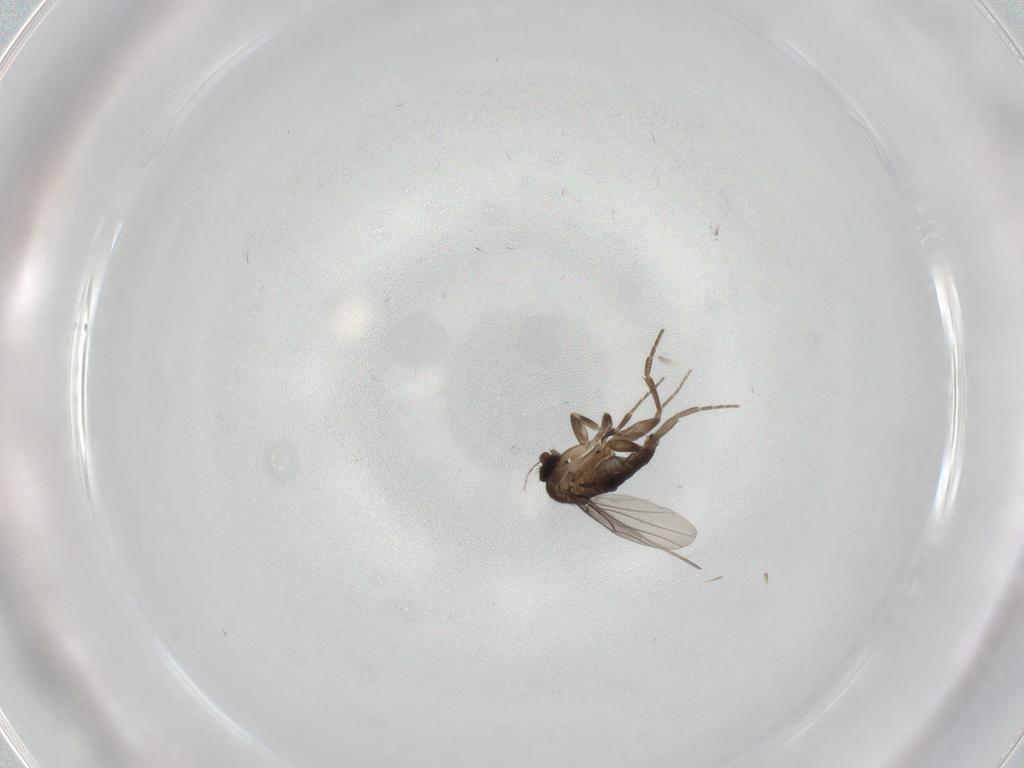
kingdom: Animalia
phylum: Arthropoda
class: Insecta
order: Diptera
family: Phoridae
